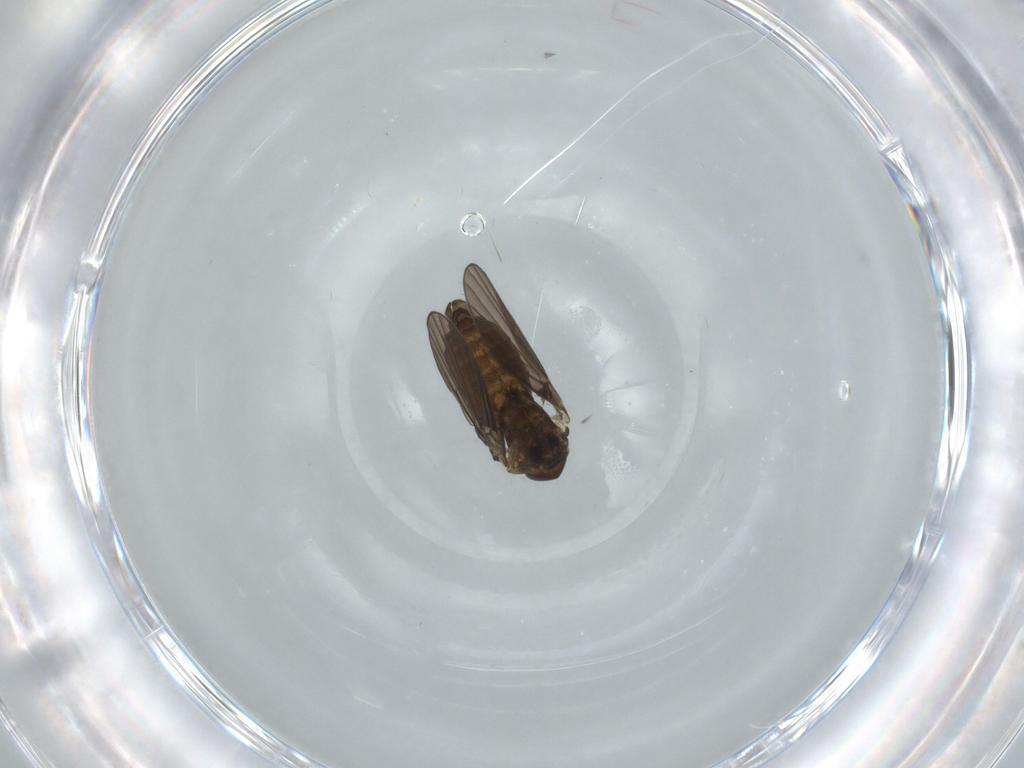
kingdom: Animalia
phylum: Arthropoda
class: Insecta
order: Diptera
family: Psychodidae
